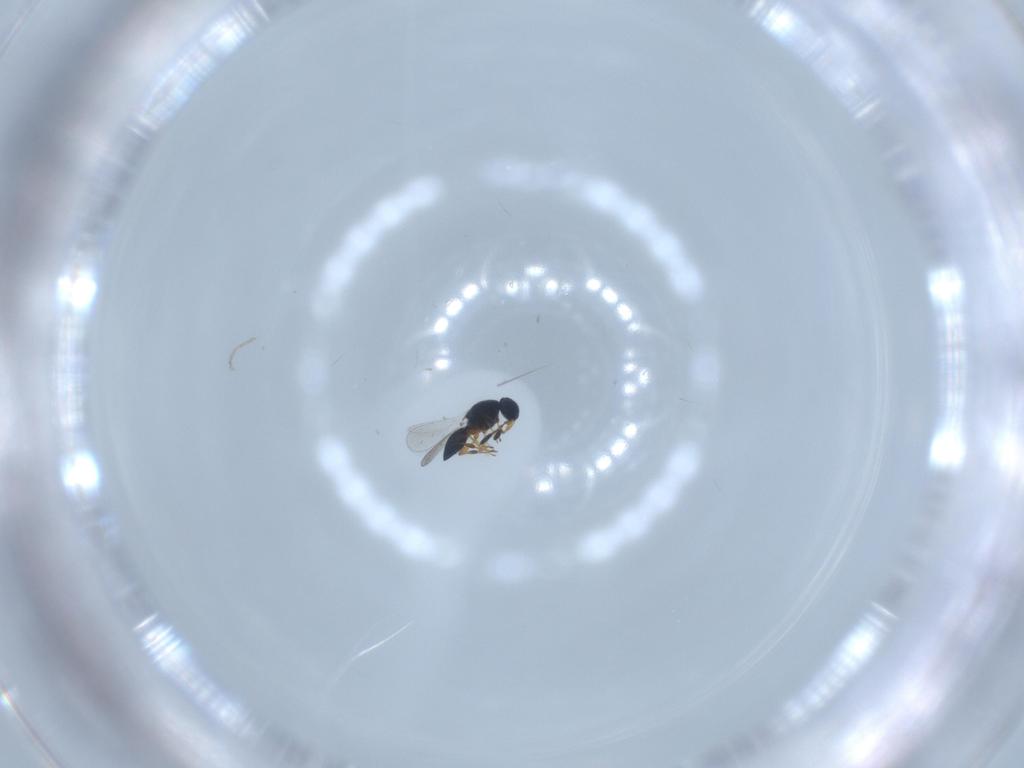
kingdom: Animalia
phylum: Arthropoda
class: Insecta
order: Hymenoptera
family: Platygastridae
